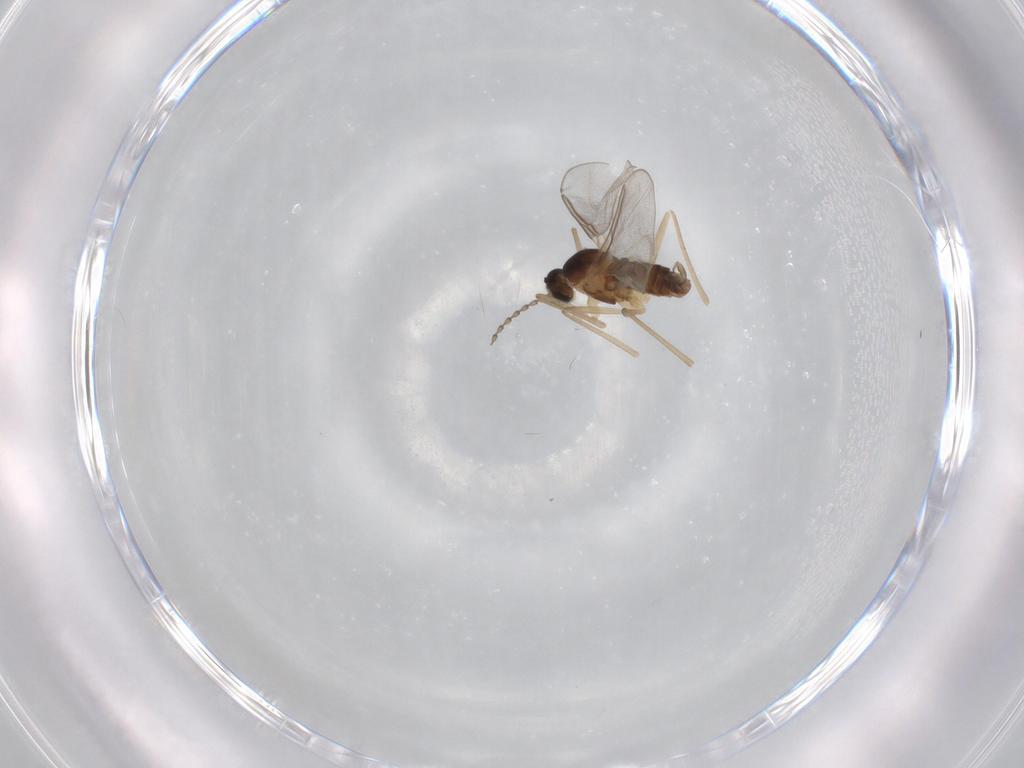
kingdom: Animalia
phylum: Arthropoda
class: Insecta
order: Diptera
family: Cecidomyiidae
